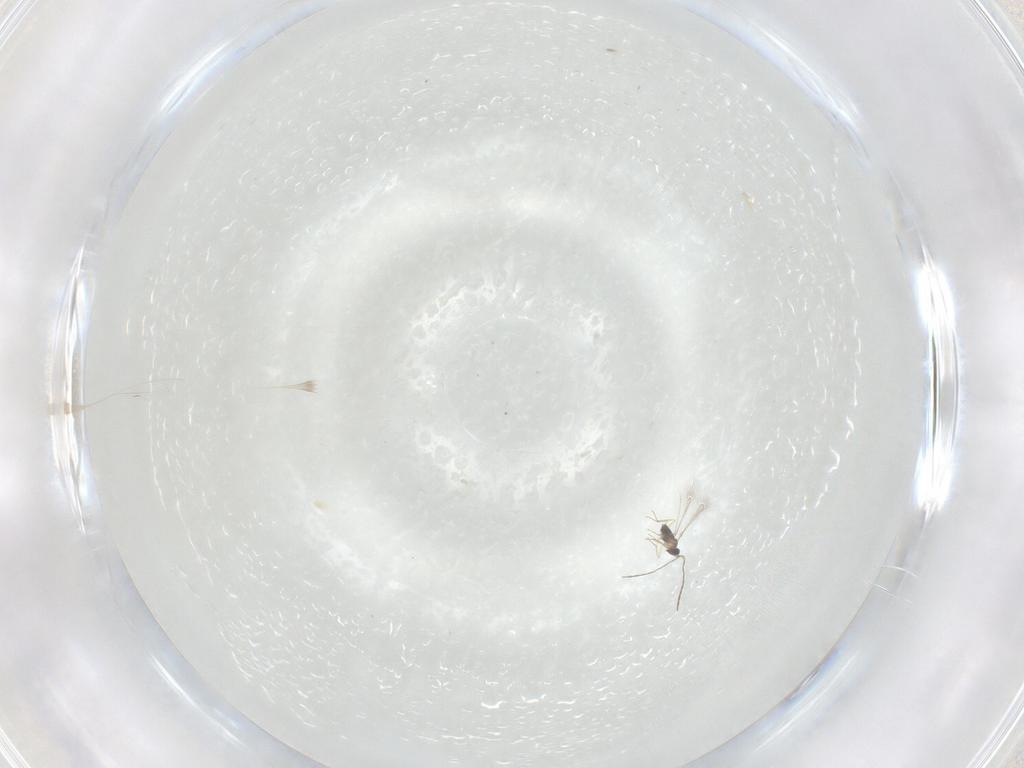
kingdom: Animalia
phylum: Arthropoda
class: Insecta
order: Hymenoptera
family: Mymaridae
